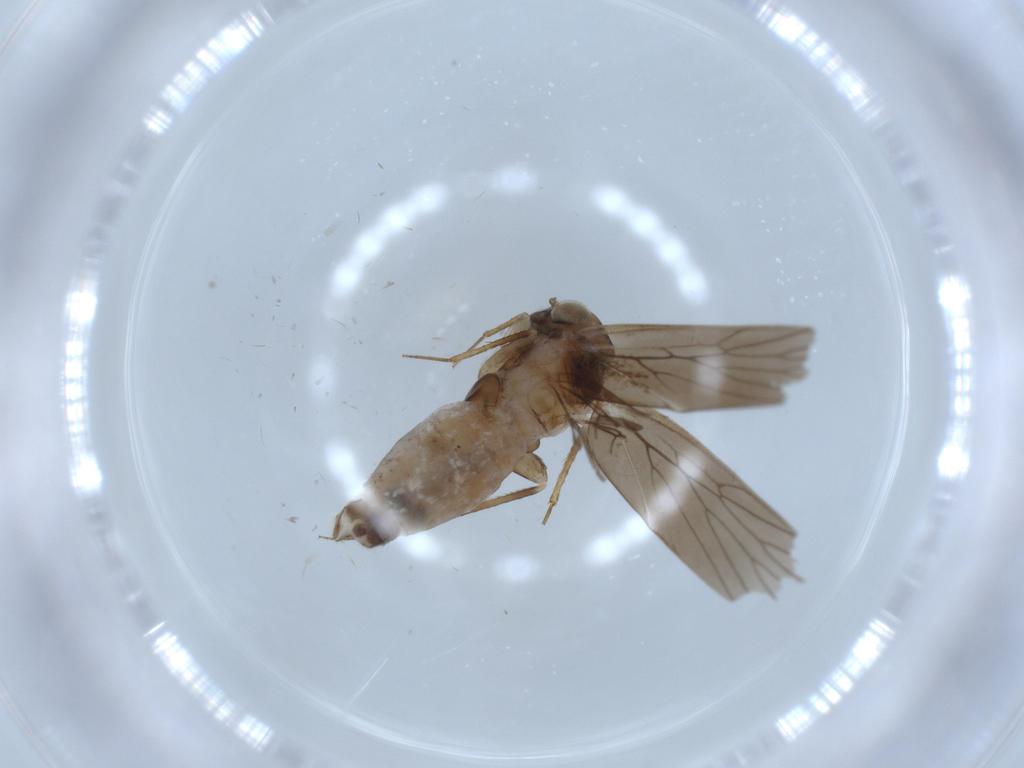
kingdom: Animalia
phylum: Arthropoda
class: Insecta
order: Psocodea
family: Lepidopsocidae
